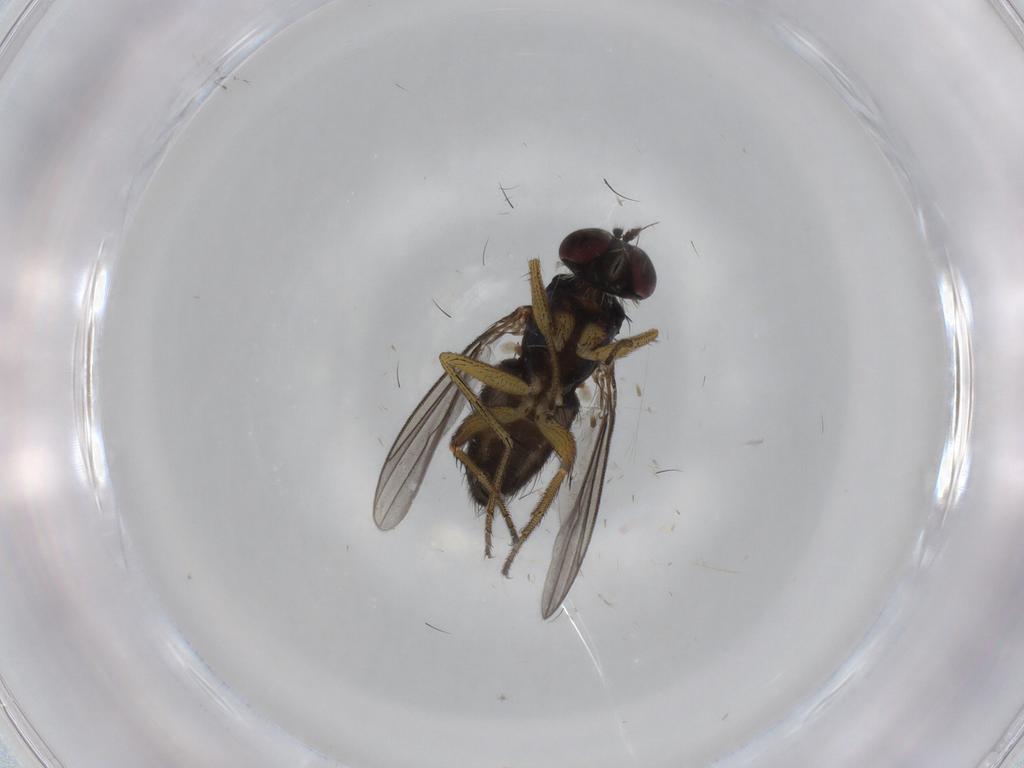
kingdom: Animalia
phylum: Arthropoda
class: Insecta
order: Diptera
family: Dolichopodidae
